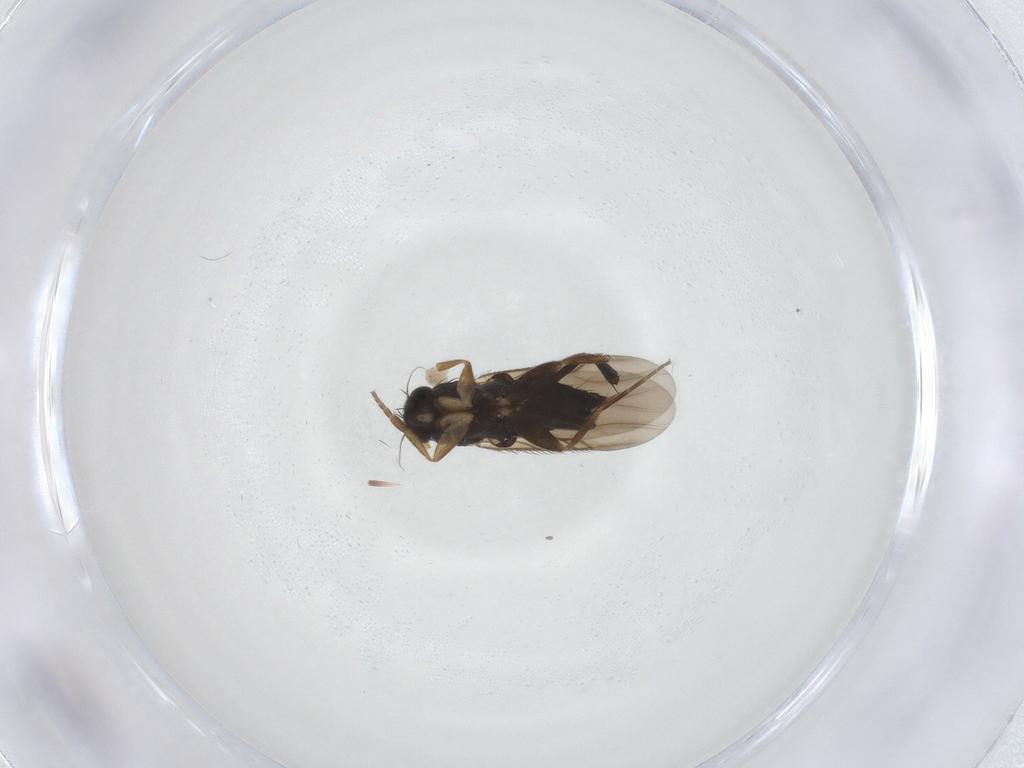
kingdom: Animalia
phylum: Arthropoda
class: Insecta
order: Diptera
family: Phoridae
